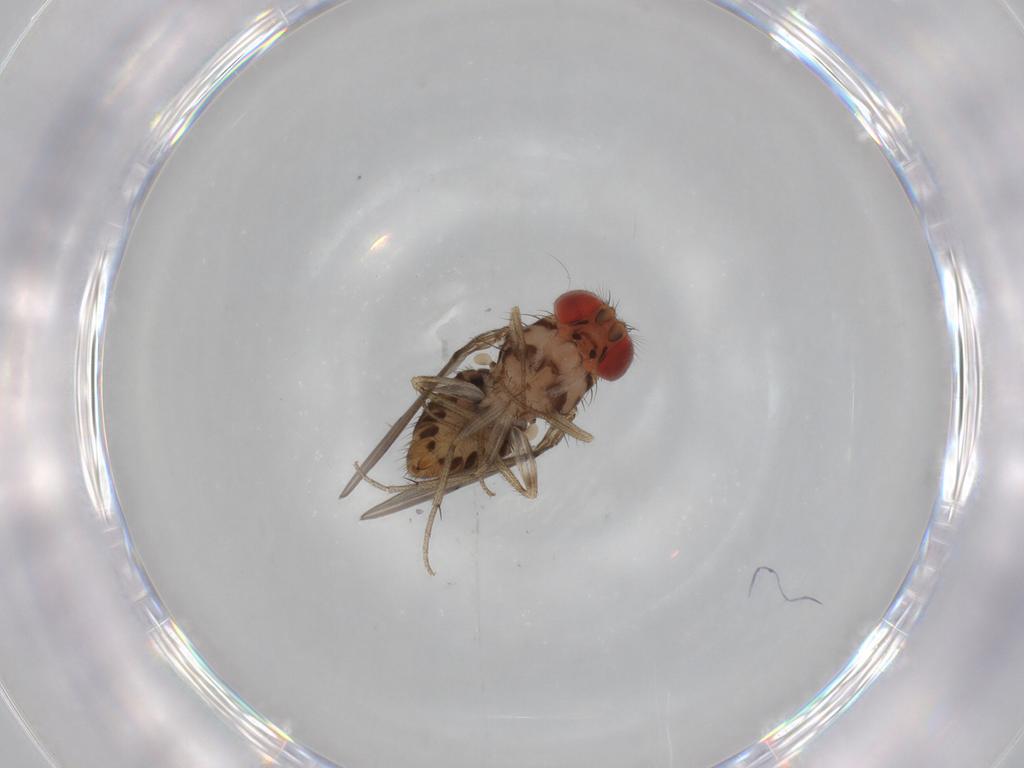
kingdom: Animalia
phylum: Arthropoda
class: Insecta
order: Diptera
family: Drosophilidae
